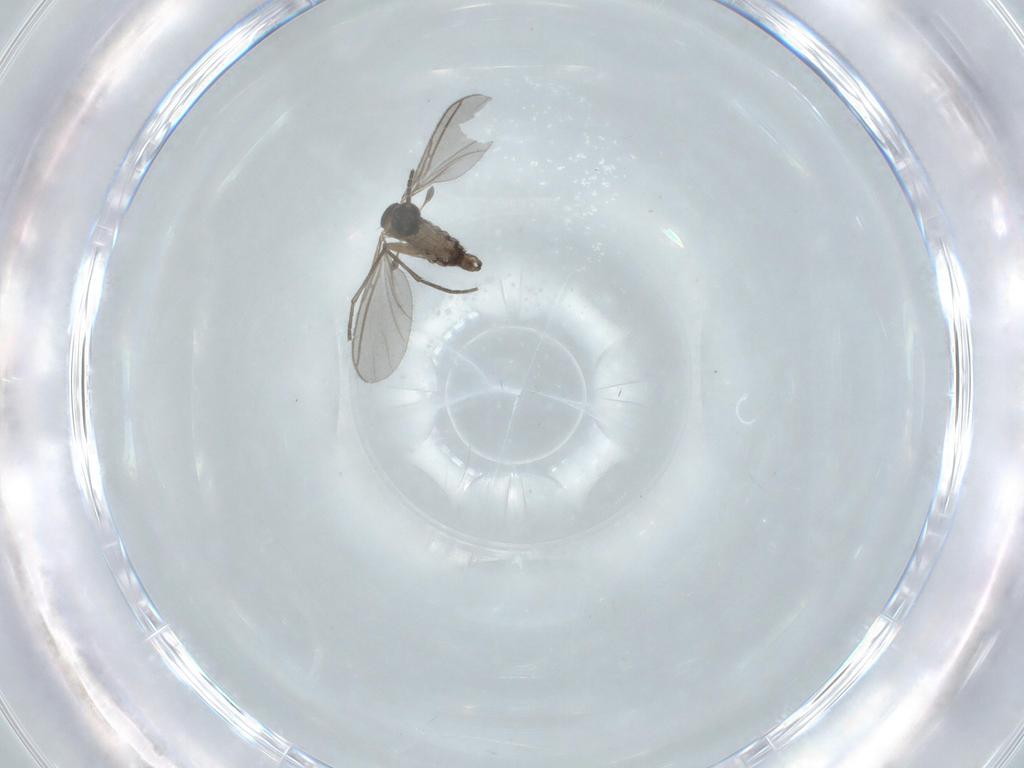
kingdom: Animalia
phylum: Arthropoda
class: Insecta
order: Diptera
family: Sciaridae
